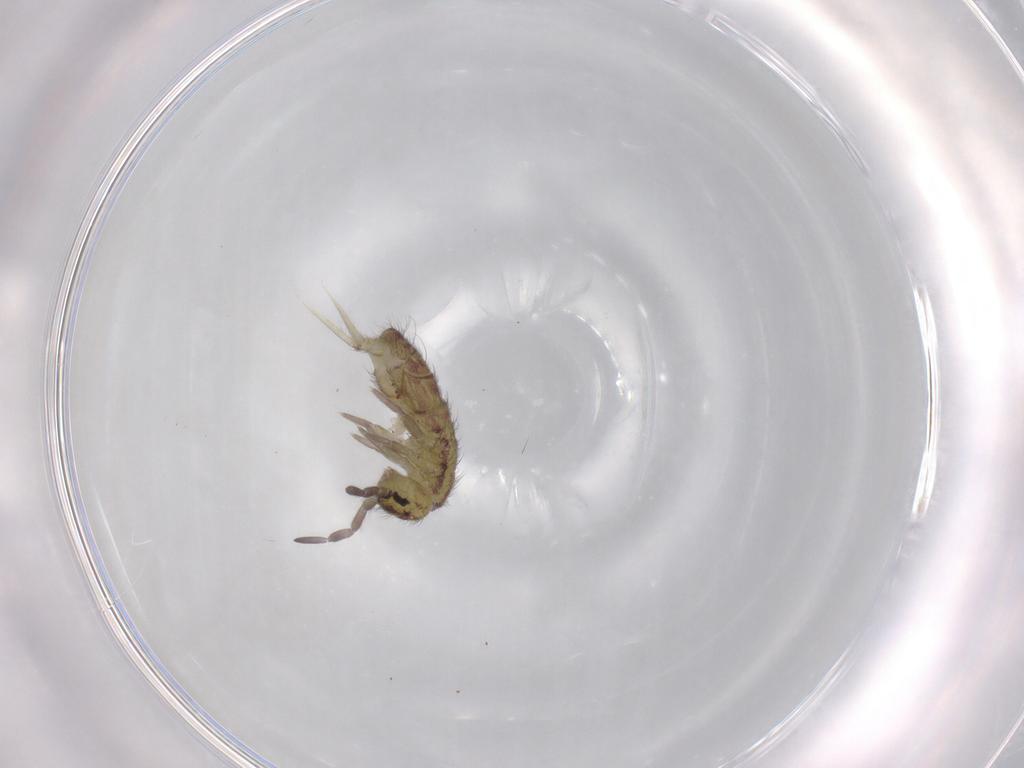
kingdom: Animalia
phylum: Arthropoda
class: Collembola
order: Entomobryomorpha
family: Isotomidae
